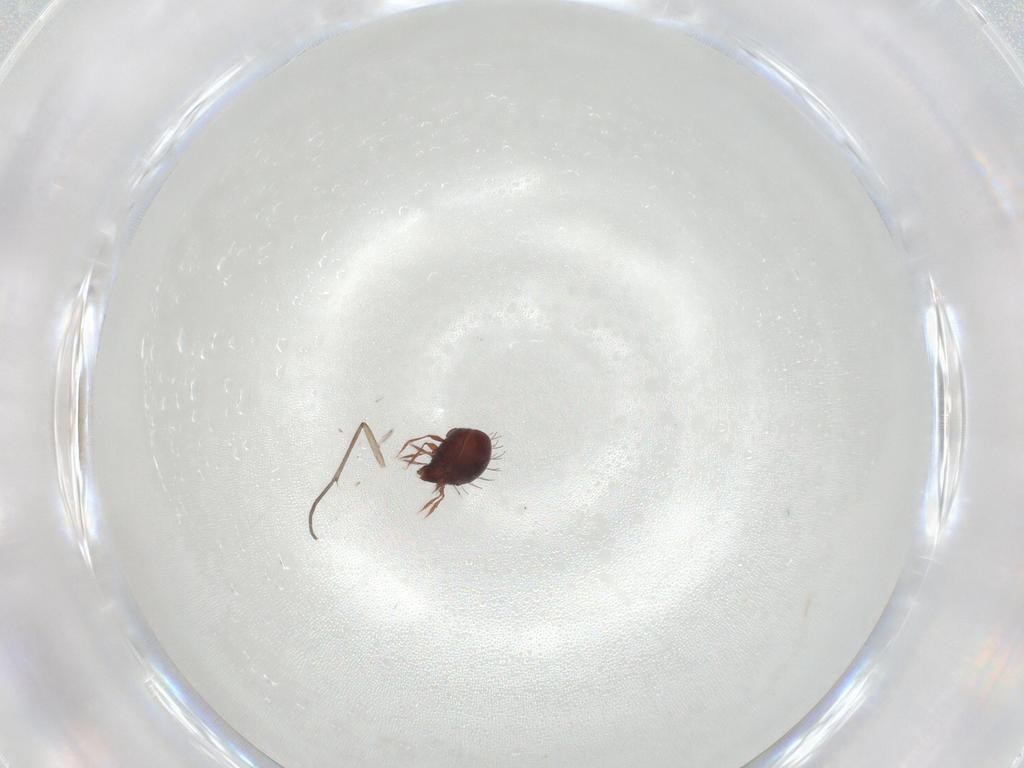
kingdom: Animalia
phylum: Arthropoda
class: Arachnida
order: Sarcoptiformes
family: Caloppiidae
